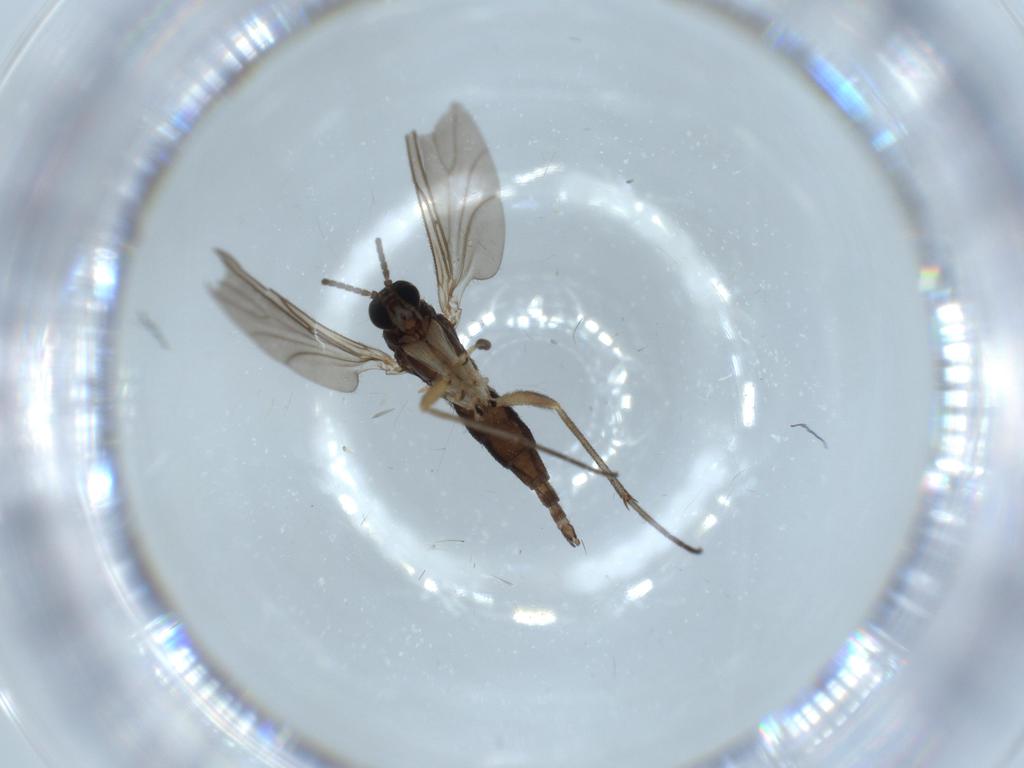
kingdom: Animalia
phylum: Arthropoda
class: Insecta
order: Diptera
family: Sciaridae
